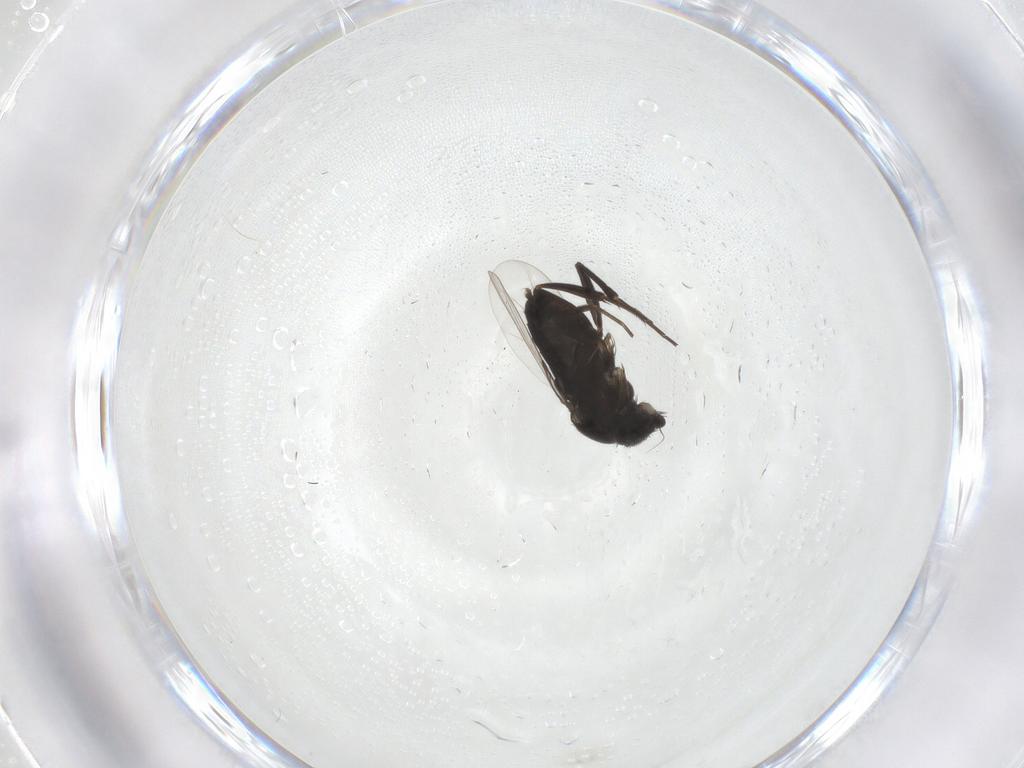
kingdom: Animalia
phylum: Arthropoda
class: Insecta
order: Diptera
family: Phoridae
